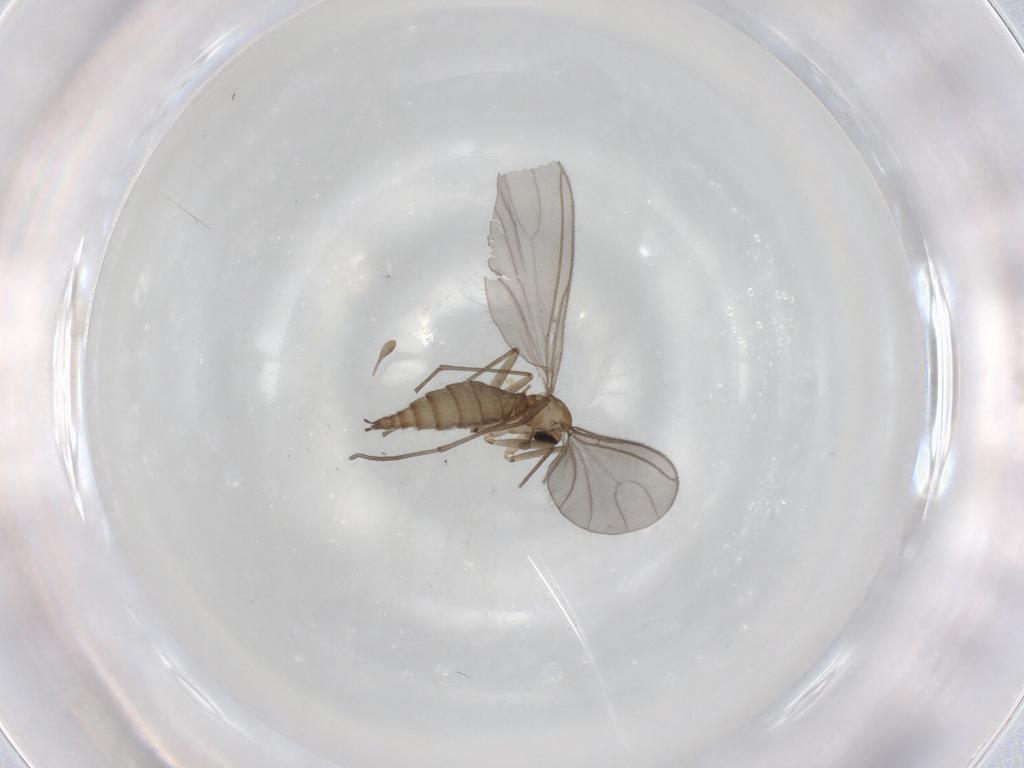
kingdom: Animalia
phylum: Arthropoda
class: Insecta
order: Diptera
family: Sciaridae
